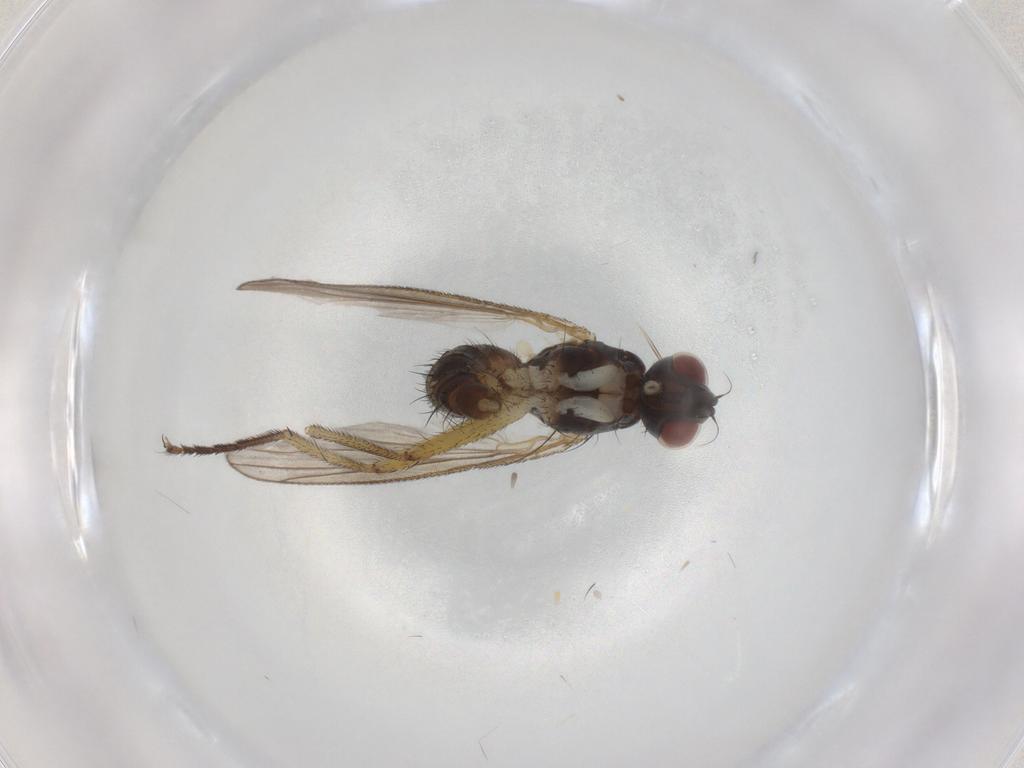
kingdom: Animalia
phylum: Arthropoda
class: Insecta
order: Diptera
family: Muscidae
